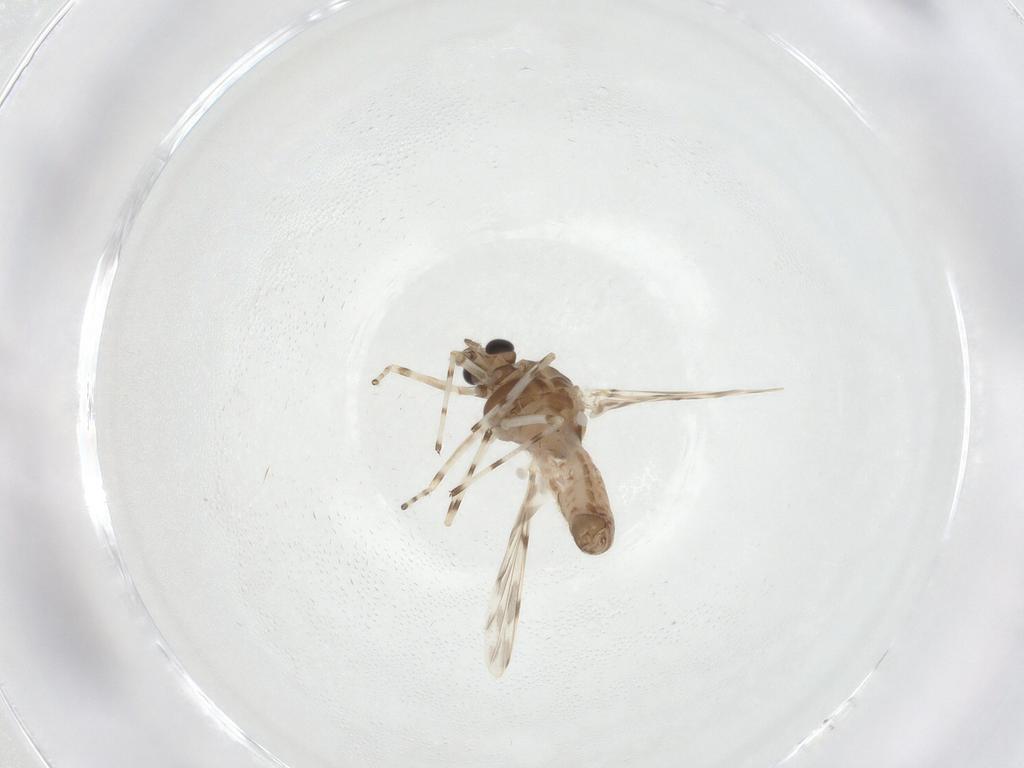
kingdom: Animalia
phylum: Arthropoda
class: Insecta
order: Diptera
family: Chironomidae
